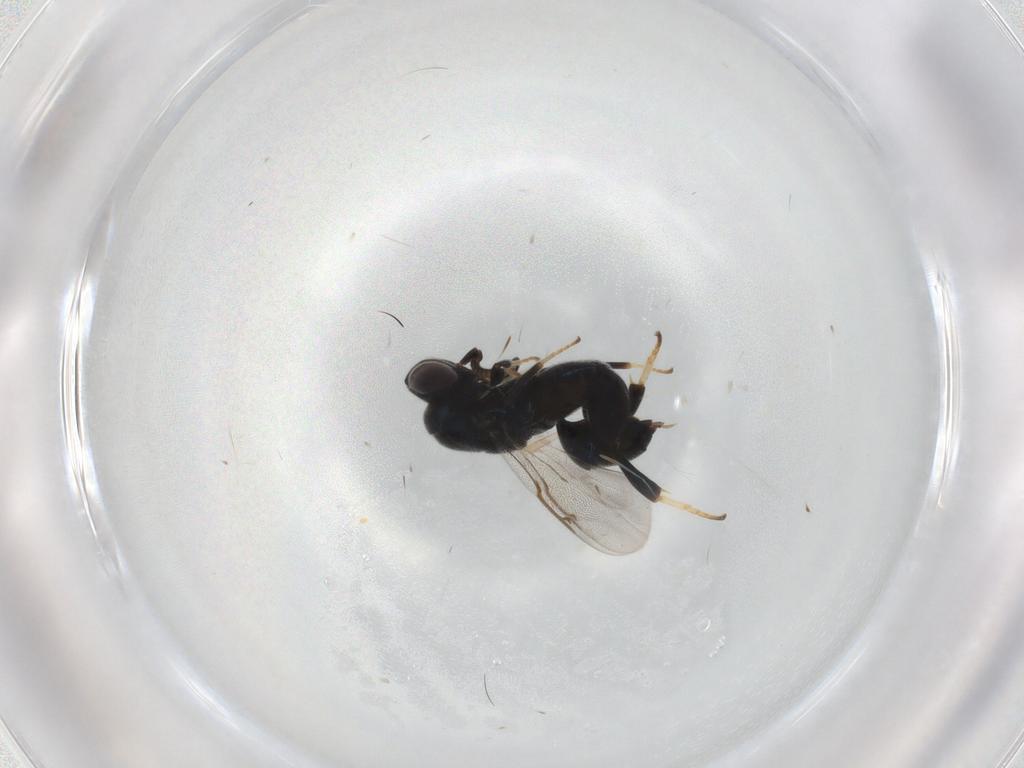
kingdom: Animalia
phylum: Arthropoda
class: Insecta
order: Hymenoptera
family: Torymidae
